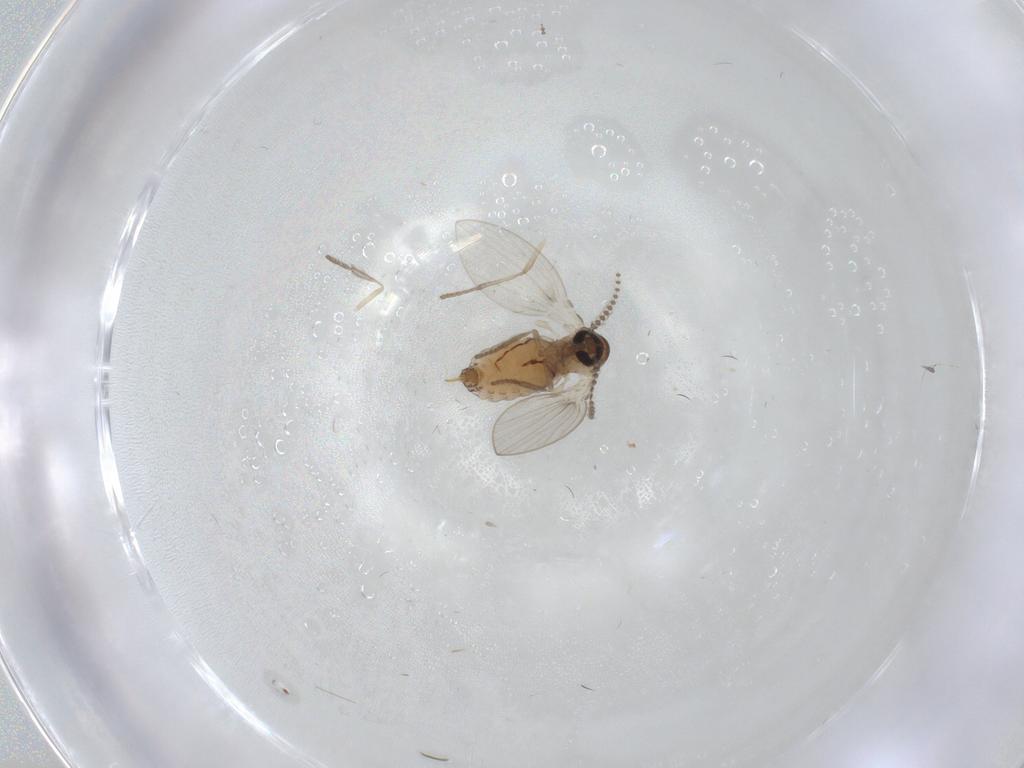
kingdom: Animalia
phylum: Arthropoda
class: Insecta
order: Diptera
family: Psychodidae
